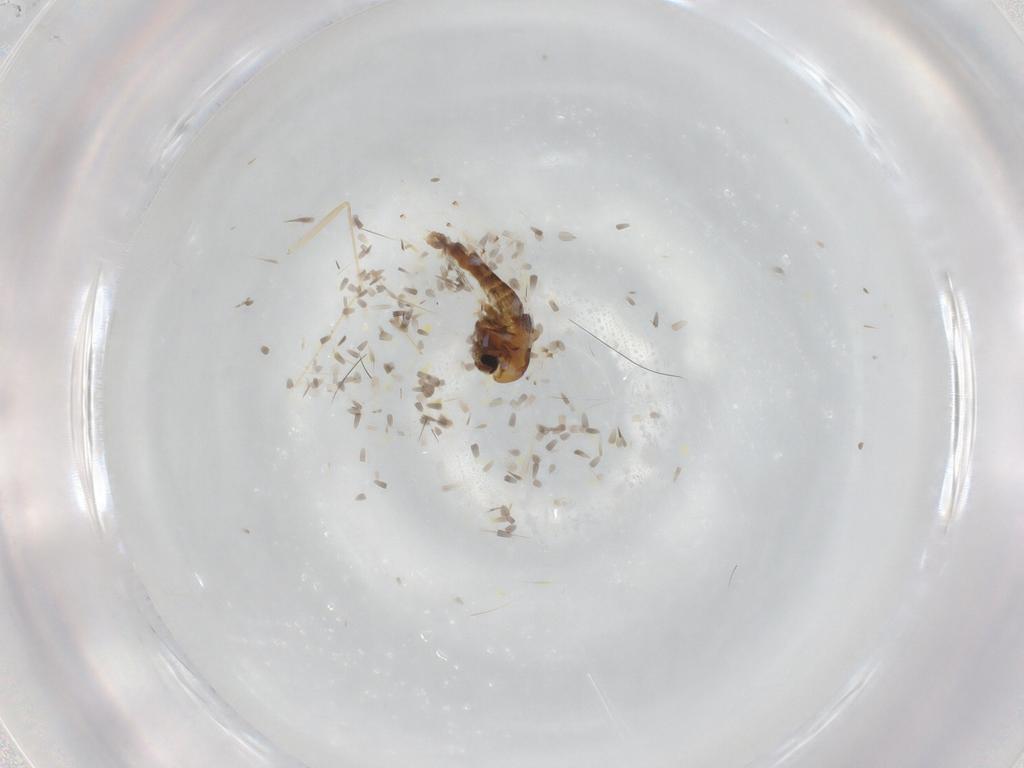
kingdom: Animalia
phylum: Arthropoda
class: Insecta
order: Diptera
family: Chironomidae
